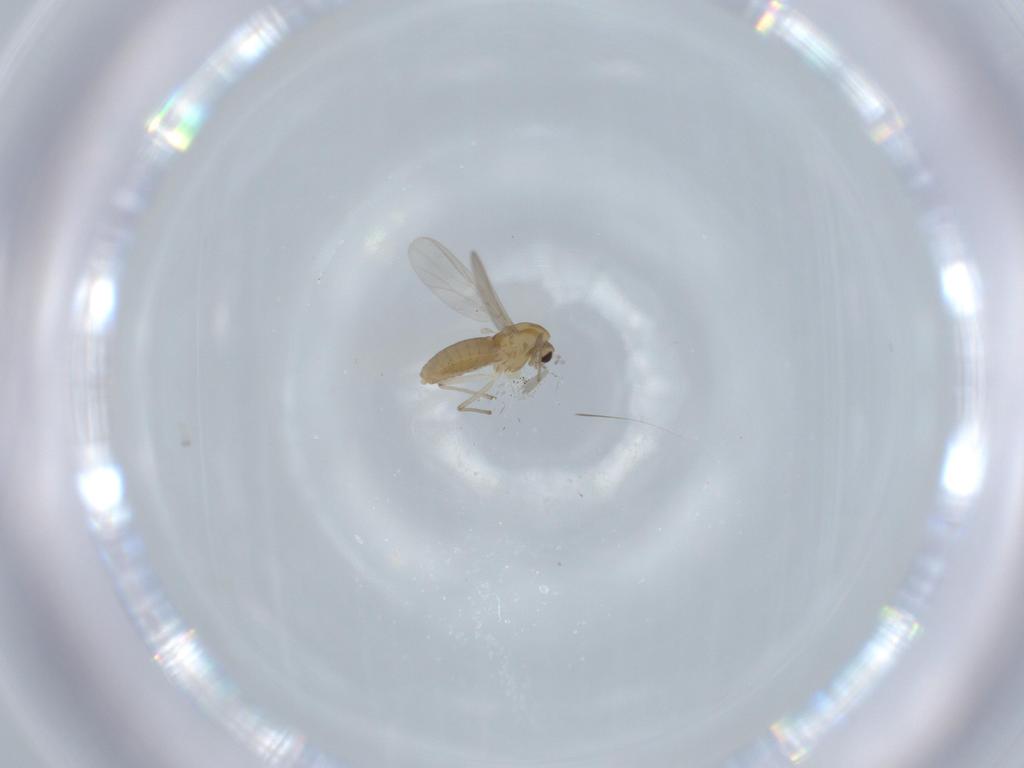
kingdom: Animalia
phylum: Arthropoda
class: Insecta
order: Diptera
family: Chironomidae
